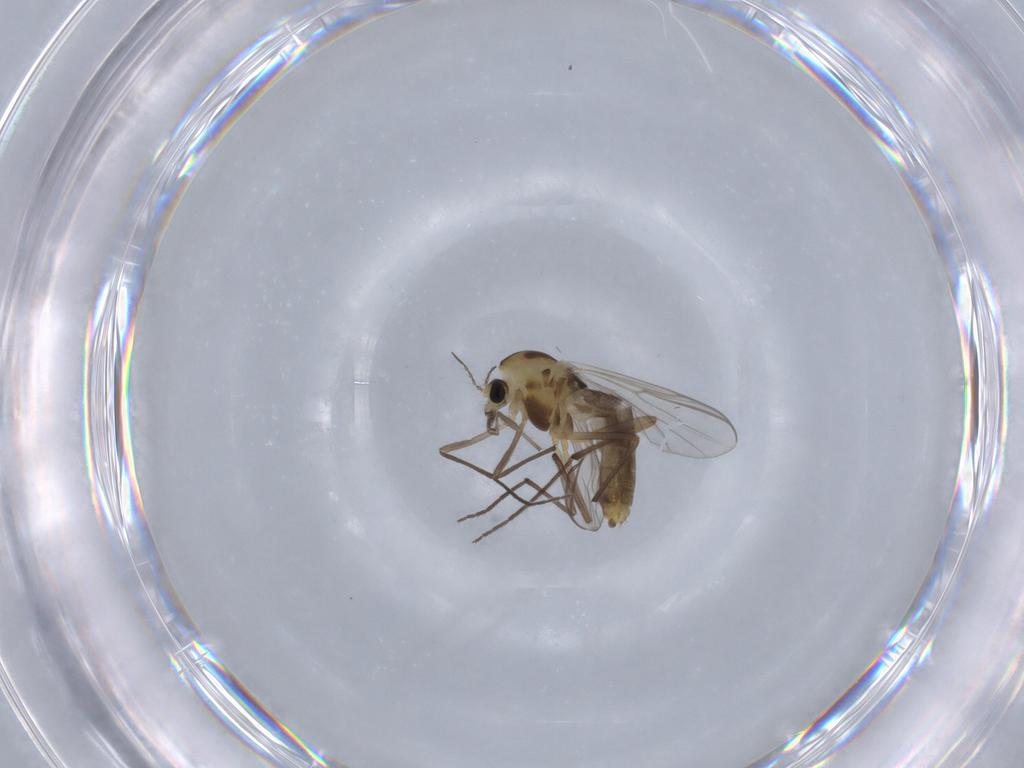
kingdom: Animalia
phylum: Arthropoda
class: Insecta
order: Diptera
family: Chironomidae
